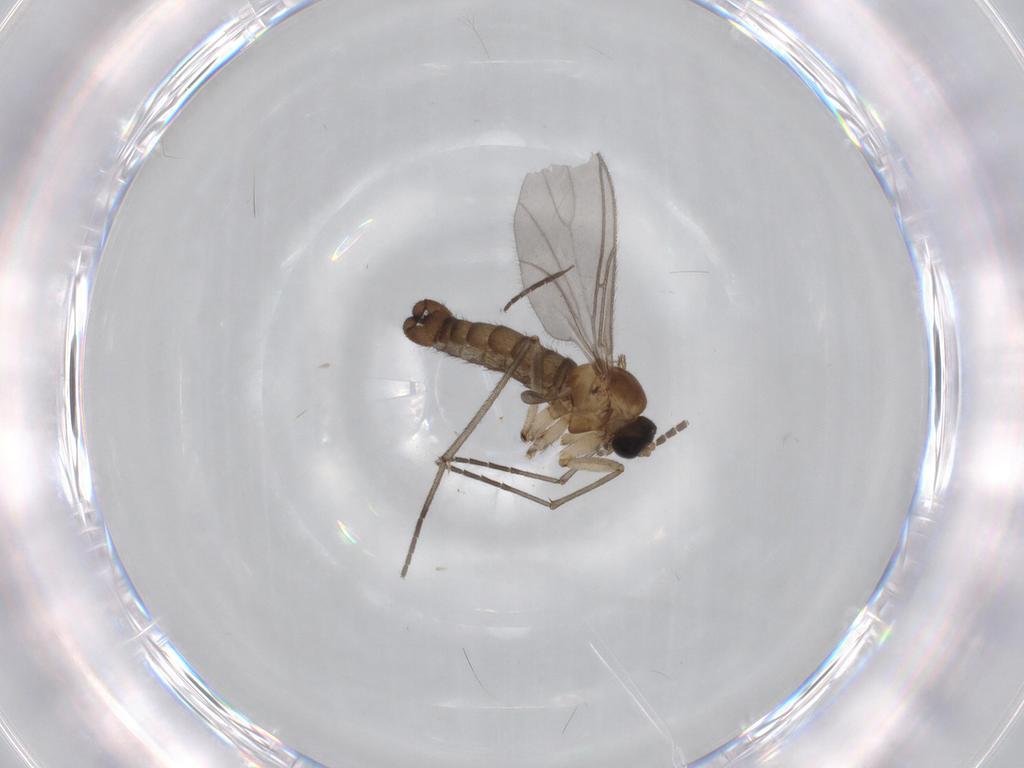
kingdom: Animalia
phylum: Arthropoda
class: Insecta
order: Diptera
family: Sciaridae
